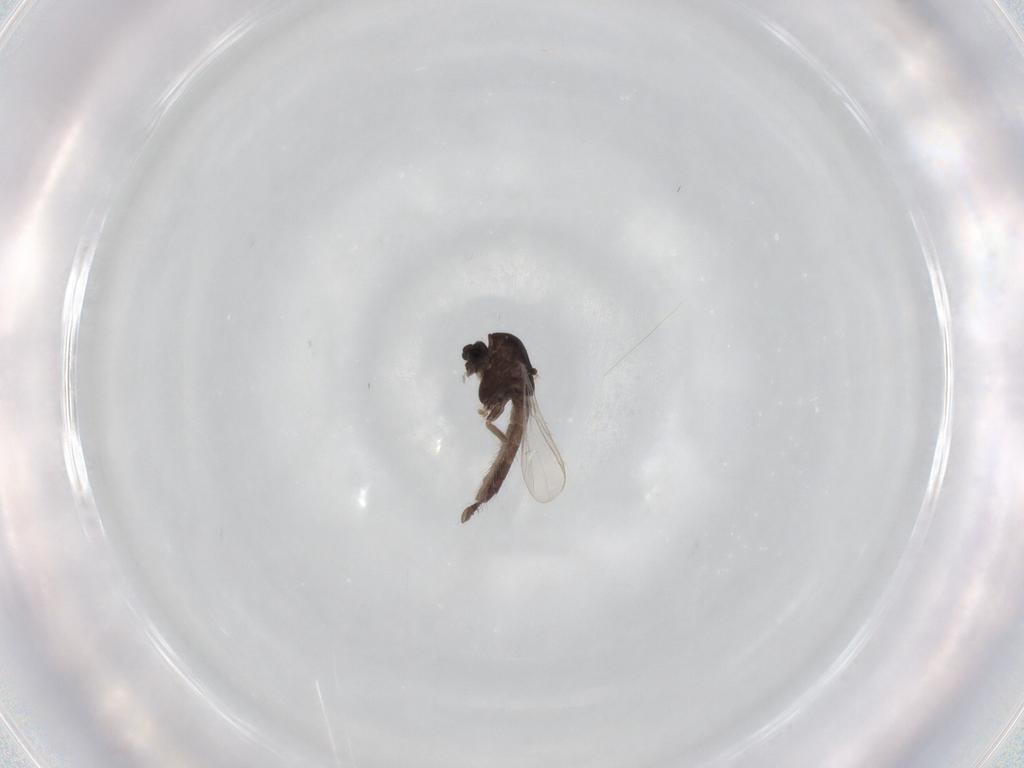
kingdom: Animalia
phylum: Arthropoda
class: Insecta
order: Diptera
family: Chironomidae
